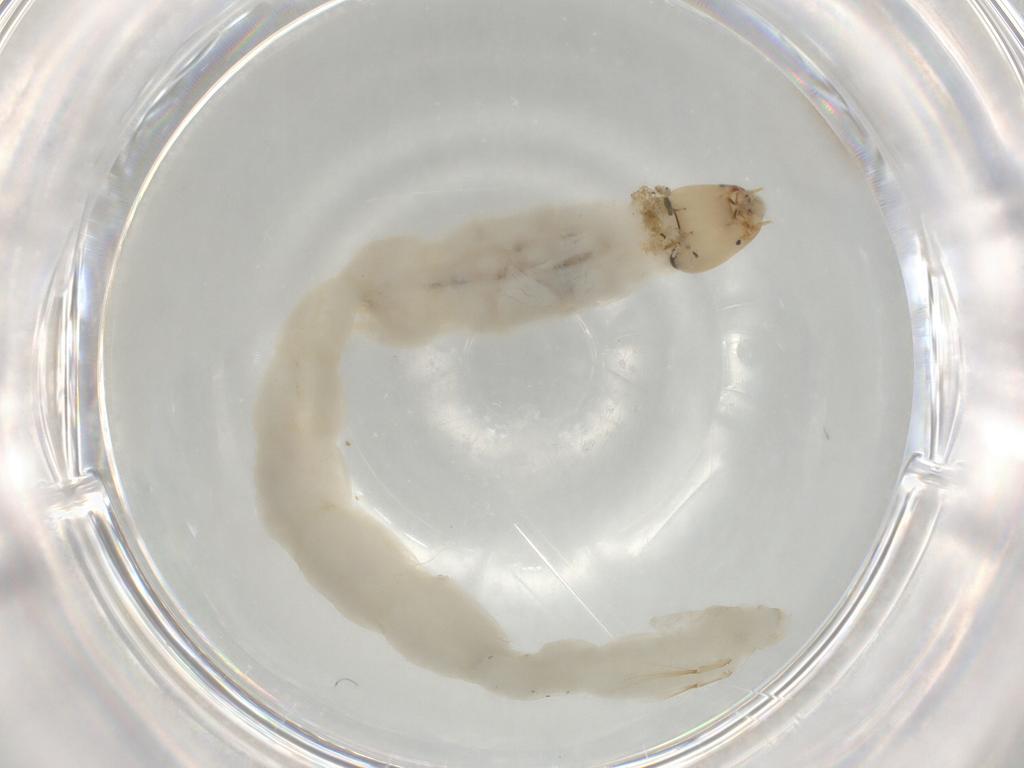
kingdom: Animalia
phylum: Arthropoda
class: Insecta
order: Diptera
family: Chironomidae
